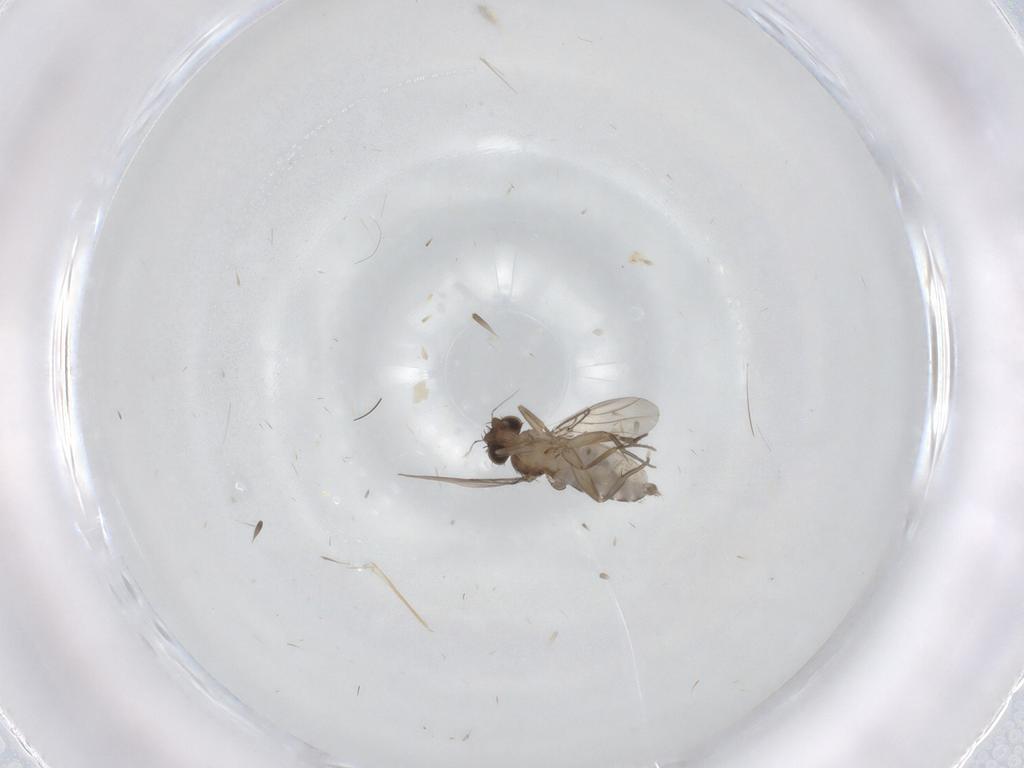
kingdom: Animalia
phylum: Arthropoda
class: Insecta
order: Diptera
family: Phoridae
